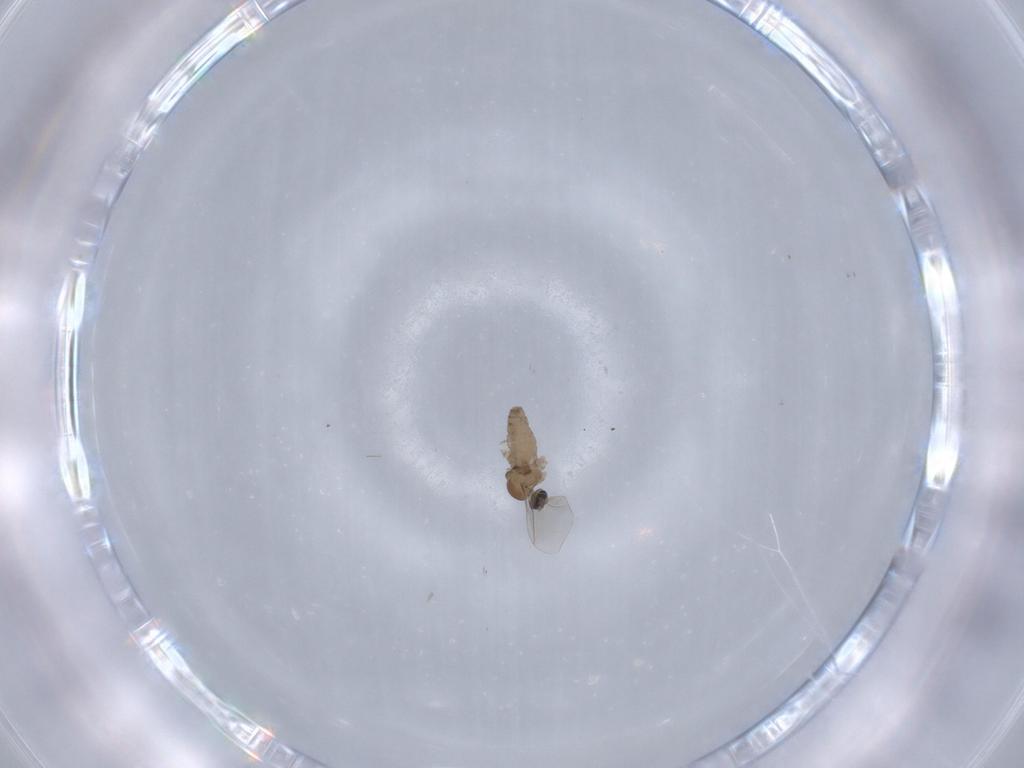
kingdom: Animalia
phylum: Arthropoda
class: Insecta
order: Diptera
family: Cecidomyiidae
